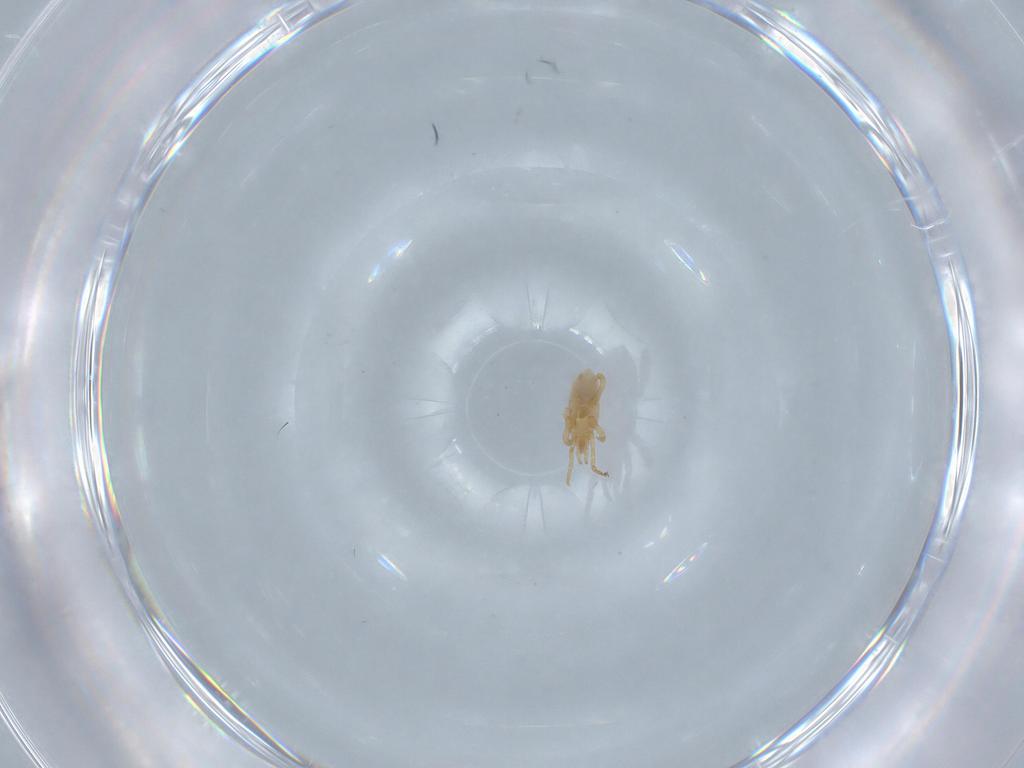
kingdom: Animalia
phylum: Arthropoda
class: Arachnida
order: Mesostigmata
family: Parasitidae
